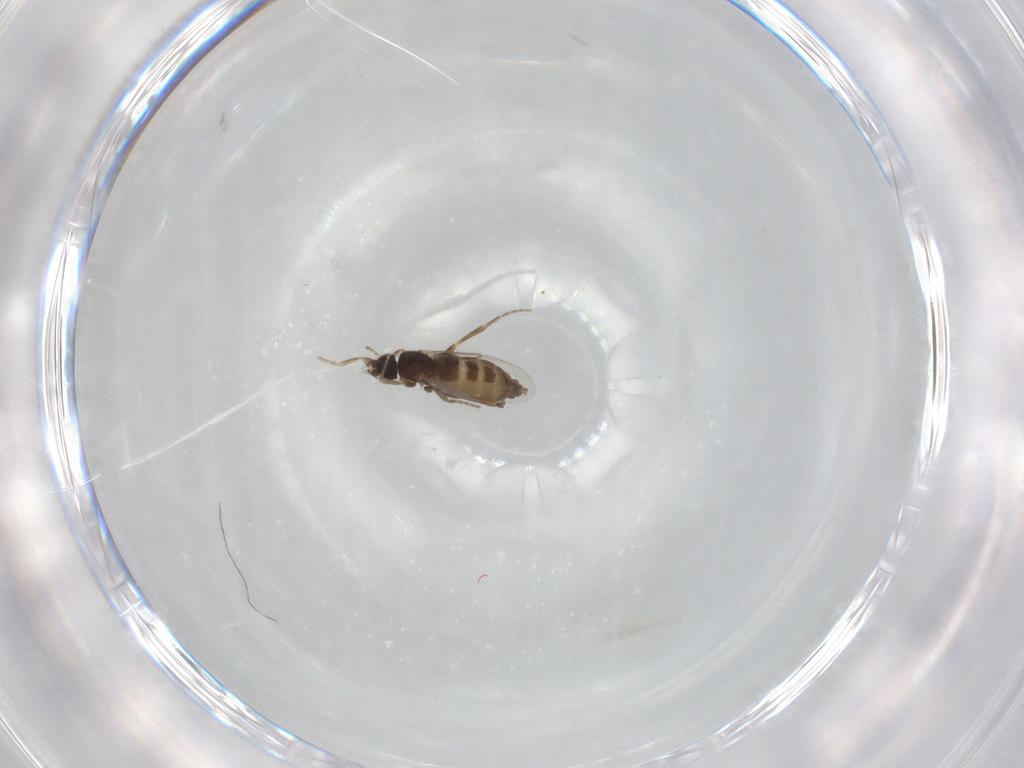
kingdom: Animalia
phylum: Arthropoda
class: Insecta
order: Diptera
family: Phoridae
